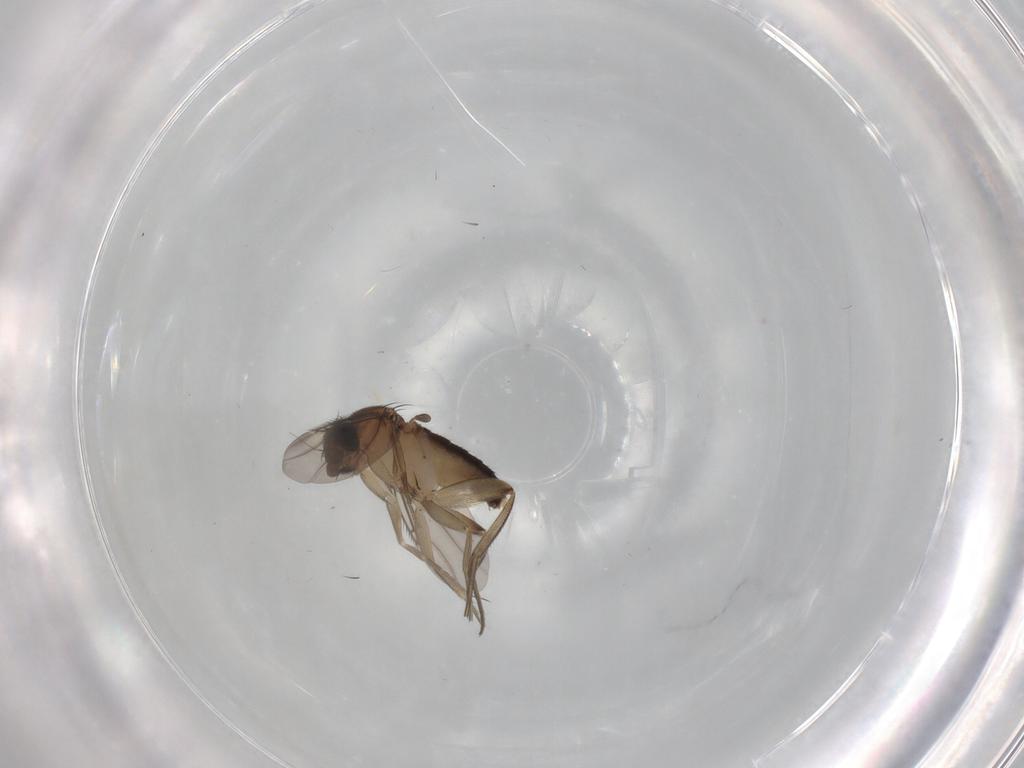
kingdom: Animalia
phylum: Arthropoda
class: Insecta
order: Diptera
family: Phoridae
